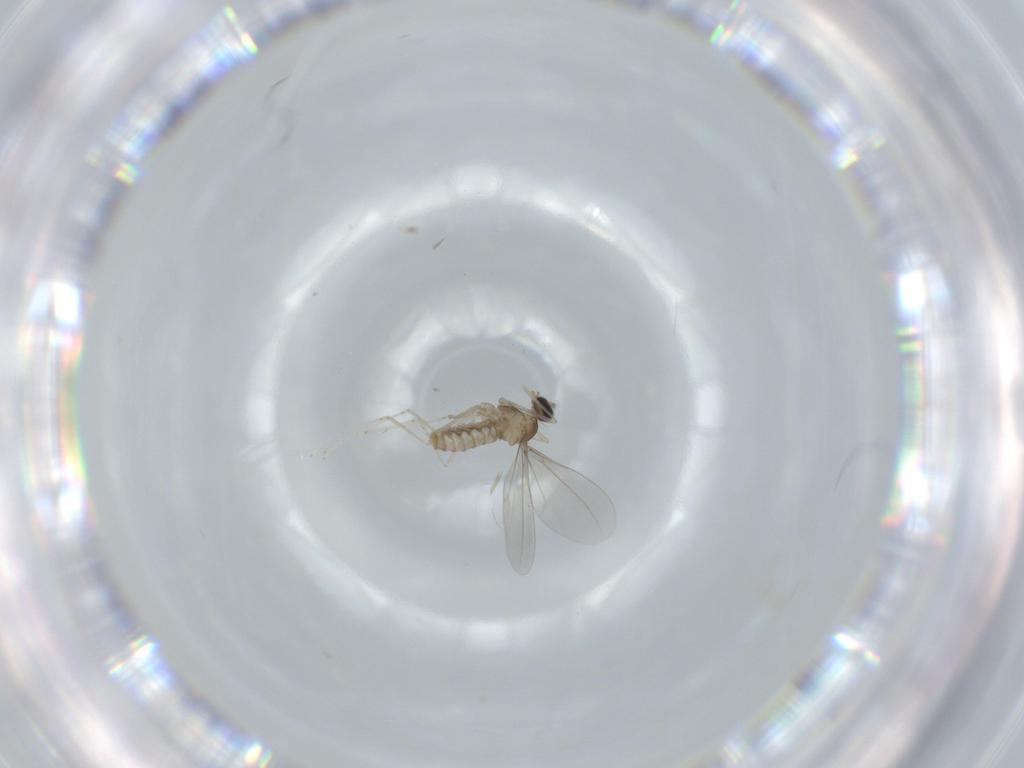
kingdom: Animalia
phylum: Arthropoda
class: Insecta
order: Diptera
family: Cecidomyiidae
